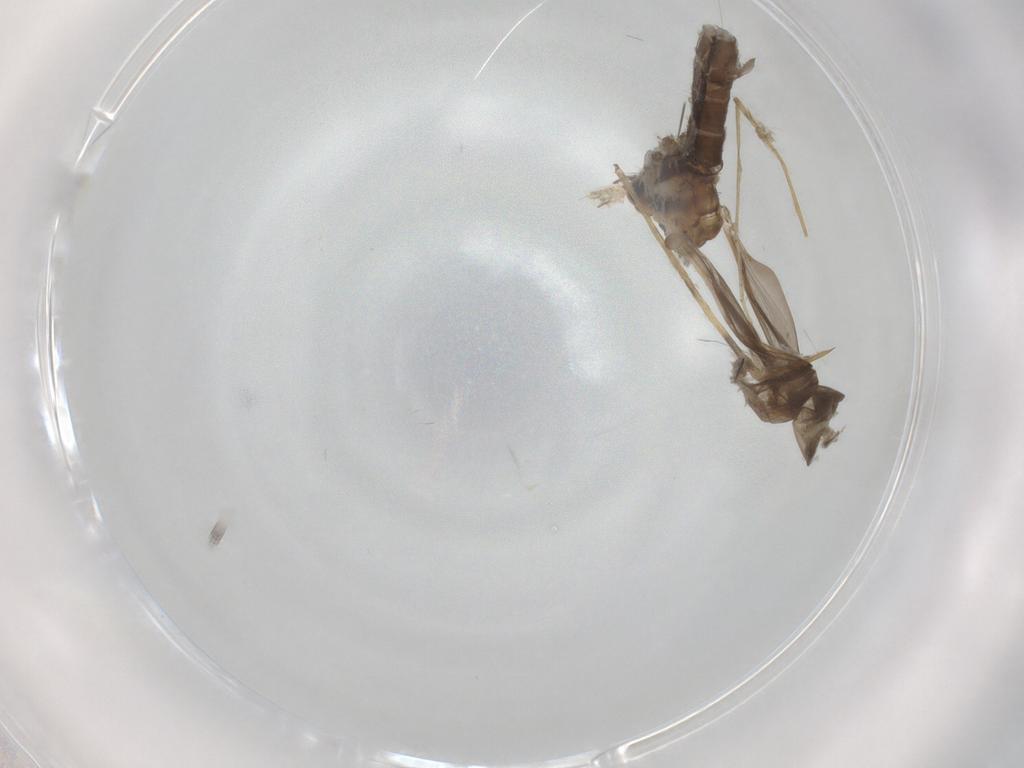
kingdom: Animalia
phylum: Arthropoda
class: Insecta
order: Diptera
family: Limoniidae
